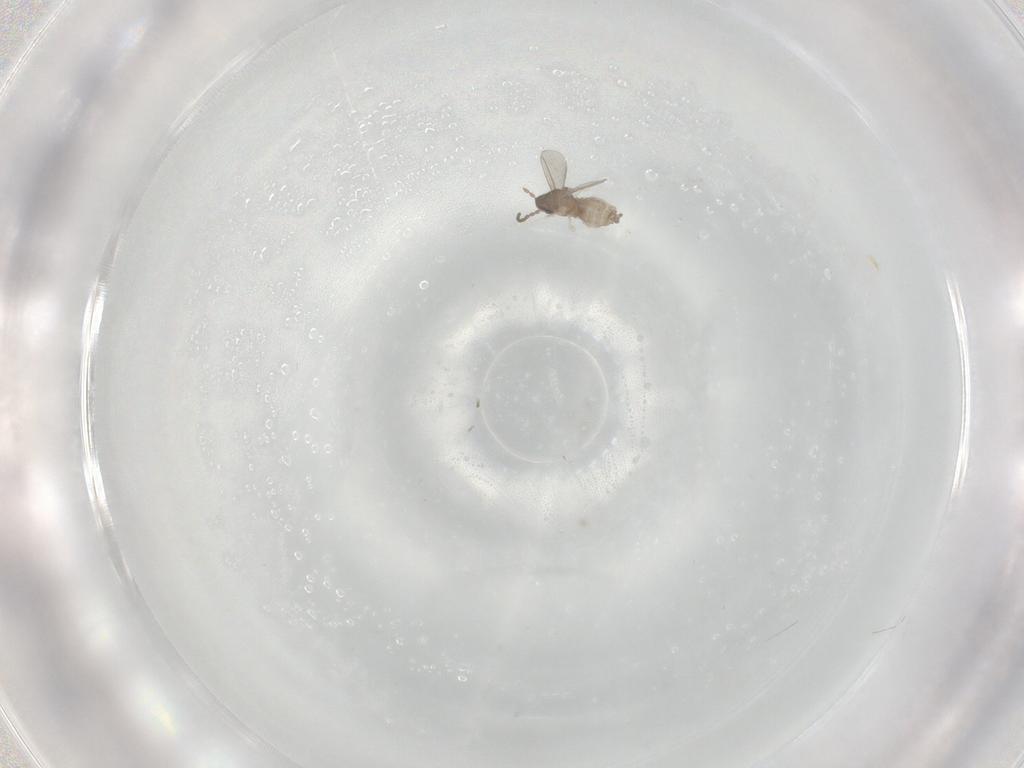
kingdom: Animalia
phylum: Arthropoda
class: Insecta
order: Diptera
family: Cecidomyiidae
